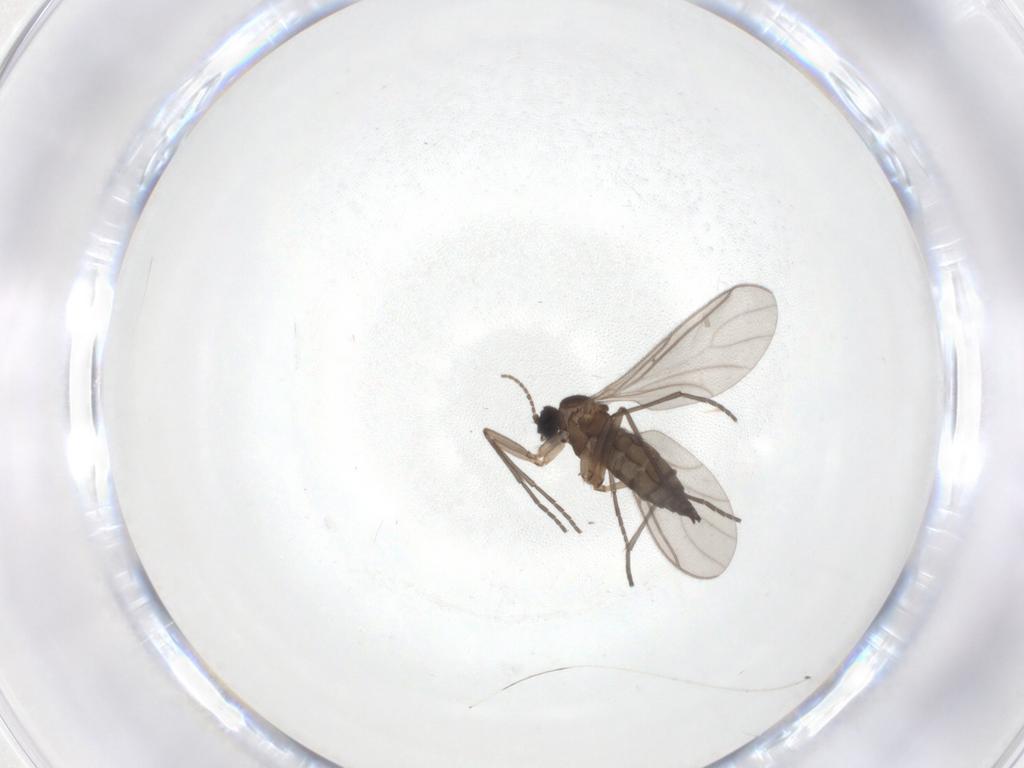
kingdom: Animalia
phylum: Arthropoda
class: Insecta
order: Diptera
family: Sciaridae
